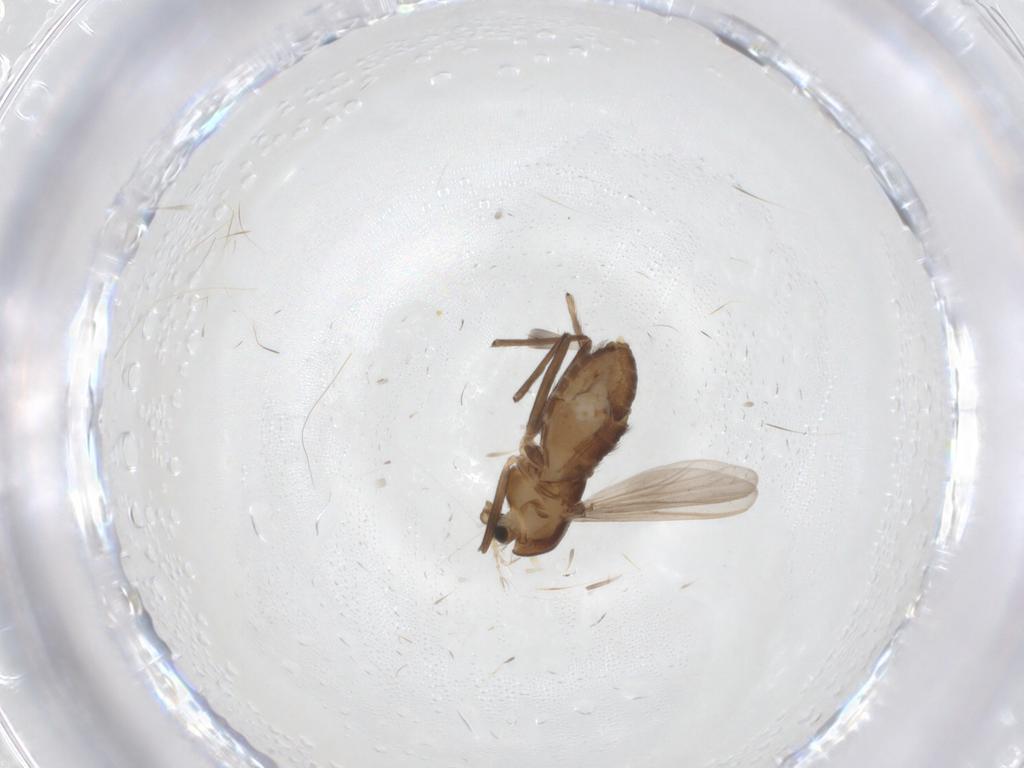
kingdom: Animalia
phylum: Arthropoda
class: Insecta
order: Diptera
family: Chironomidae
